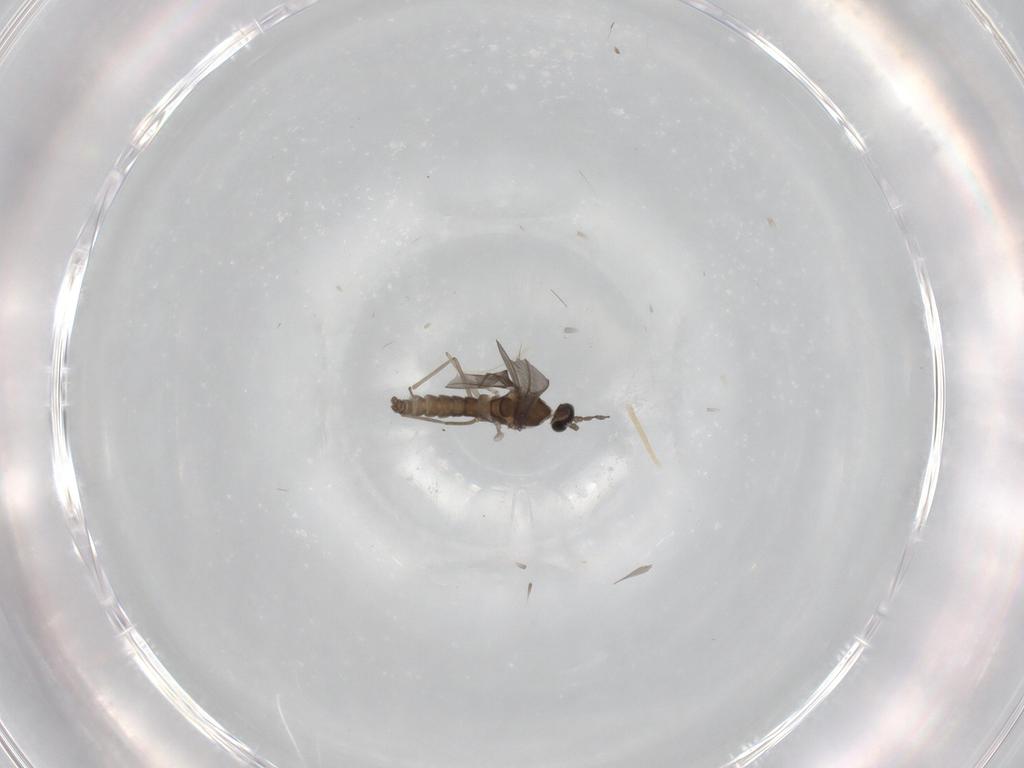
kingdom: Animalia
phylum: Arthropoda
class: Insecta
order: Diptera
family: Cecidomyiidae
